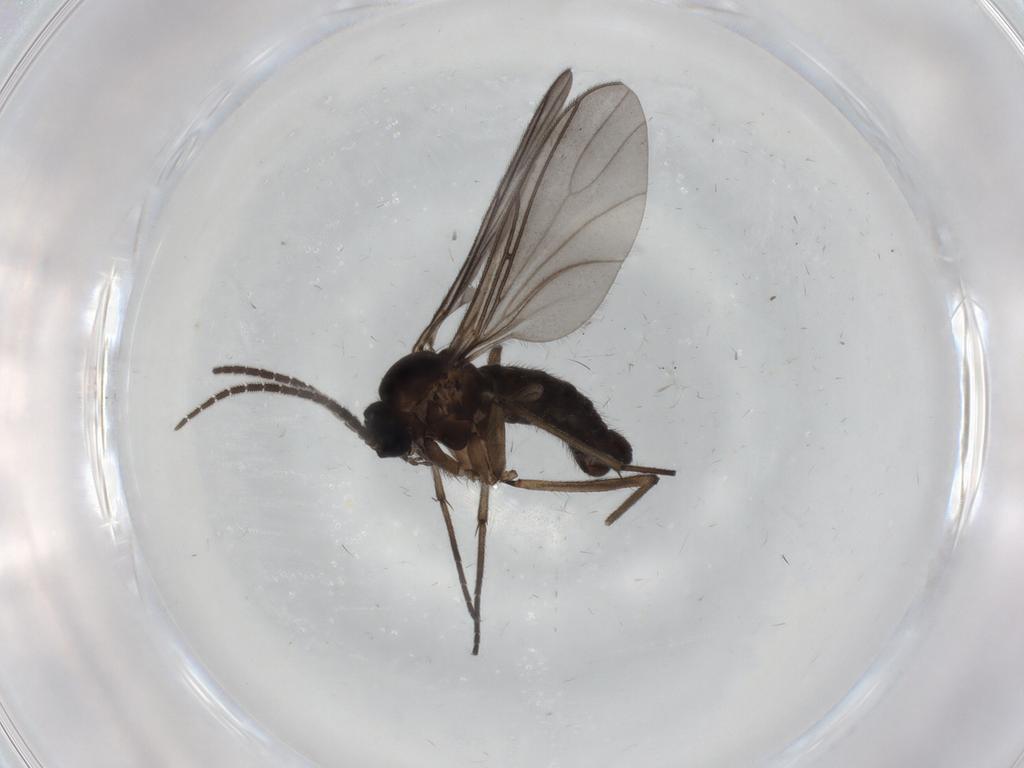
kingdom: Animalia
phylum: Arthropoda
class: Insecta
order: Diptera
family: Sciaridae
